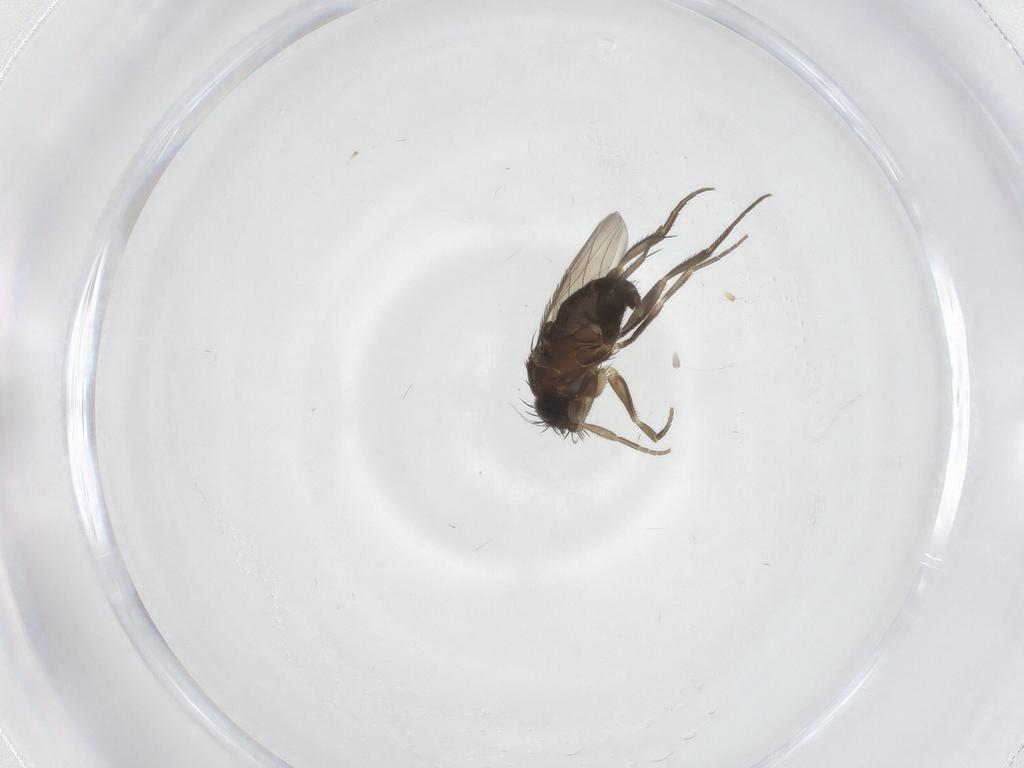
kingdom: Animalia
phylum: Arthropoda
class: Insecta
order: Diptera
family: Phoridae
